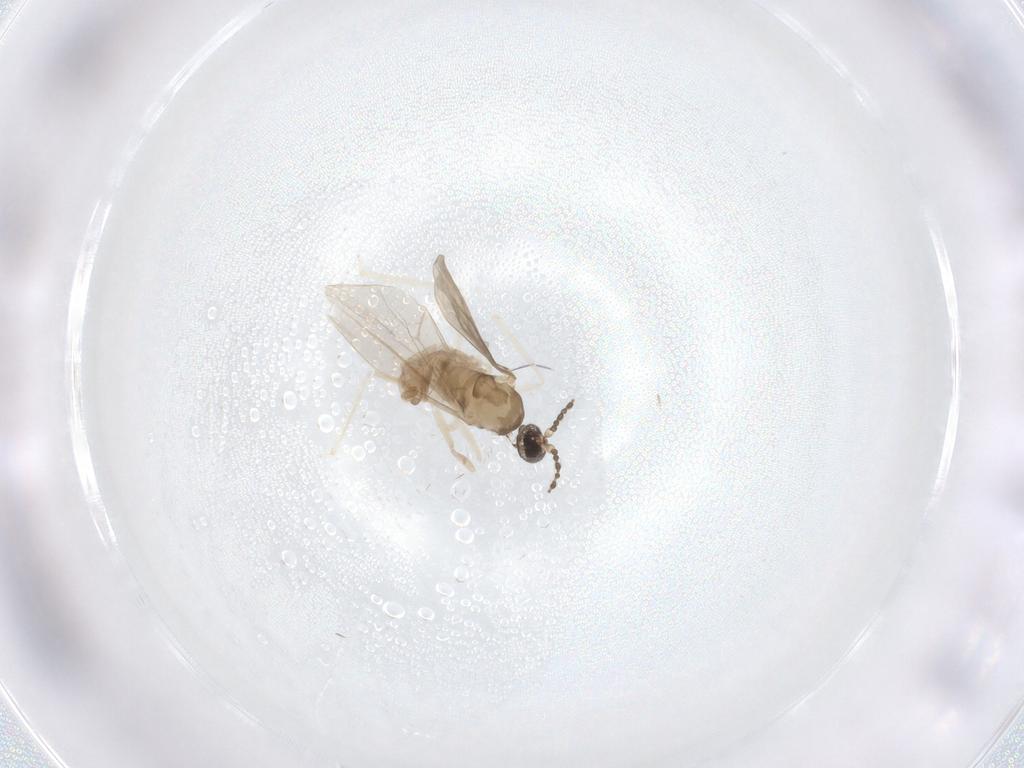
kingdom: Animalia
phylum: Arthropoda
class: Insecta
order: Diptera
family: Cecidomyiidae
